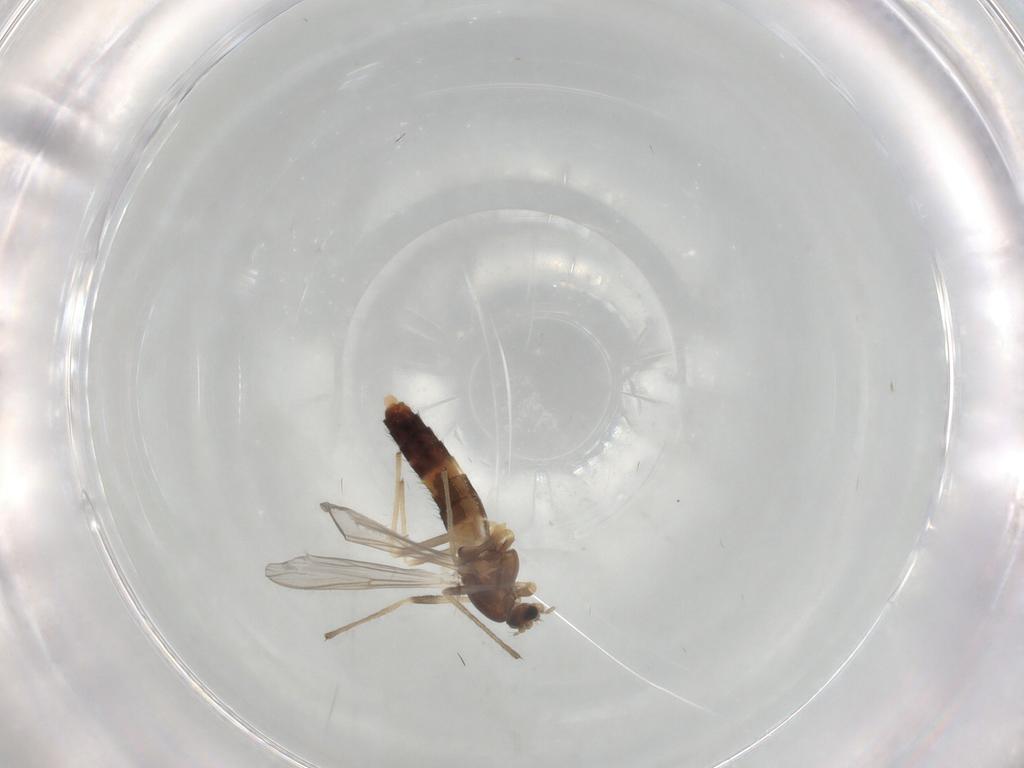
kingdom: Animalia
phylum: Arthropoda
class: Insecta
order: Diptera
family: Chironomidae
